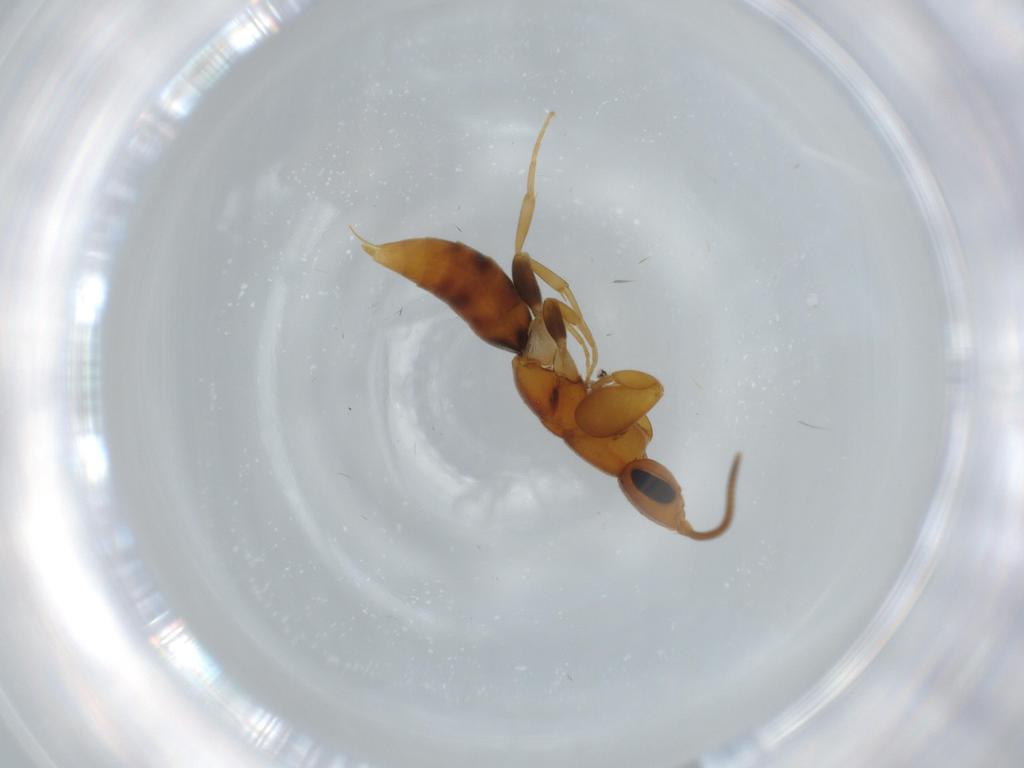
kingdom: Animalia
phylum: Arthropoda
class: Insecta
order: Hymenoptera
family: Sclerogibbidae
